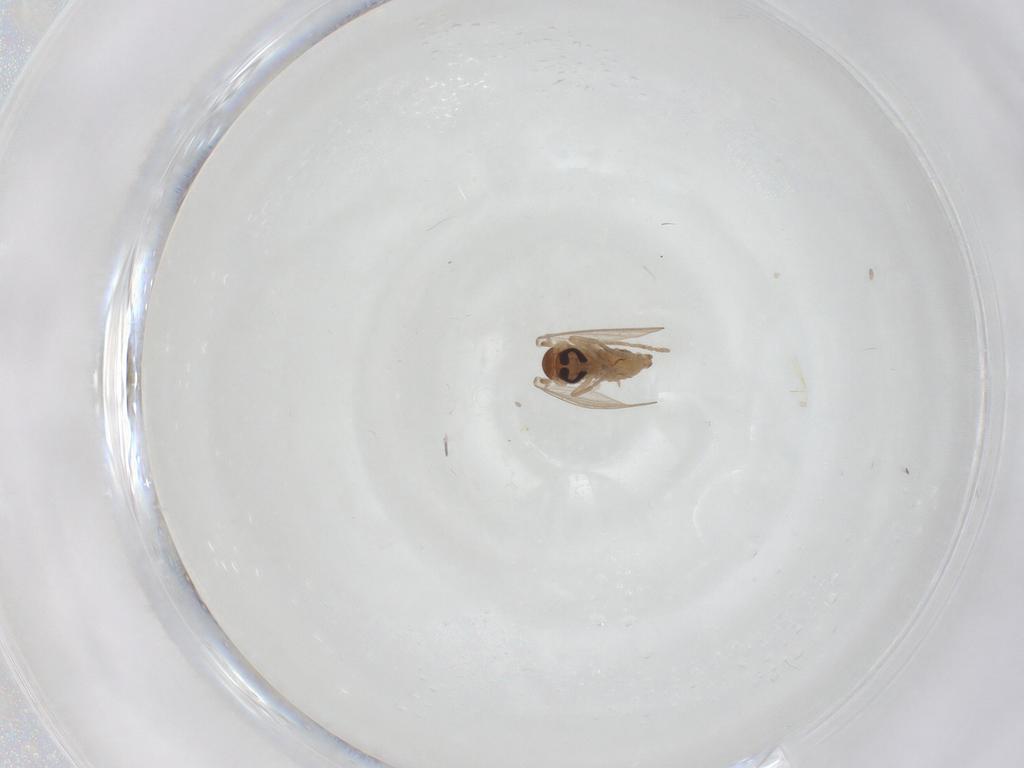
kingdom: Animalia
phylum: Arthropoda
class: Insecta
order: Diptera
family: Psychodidae
